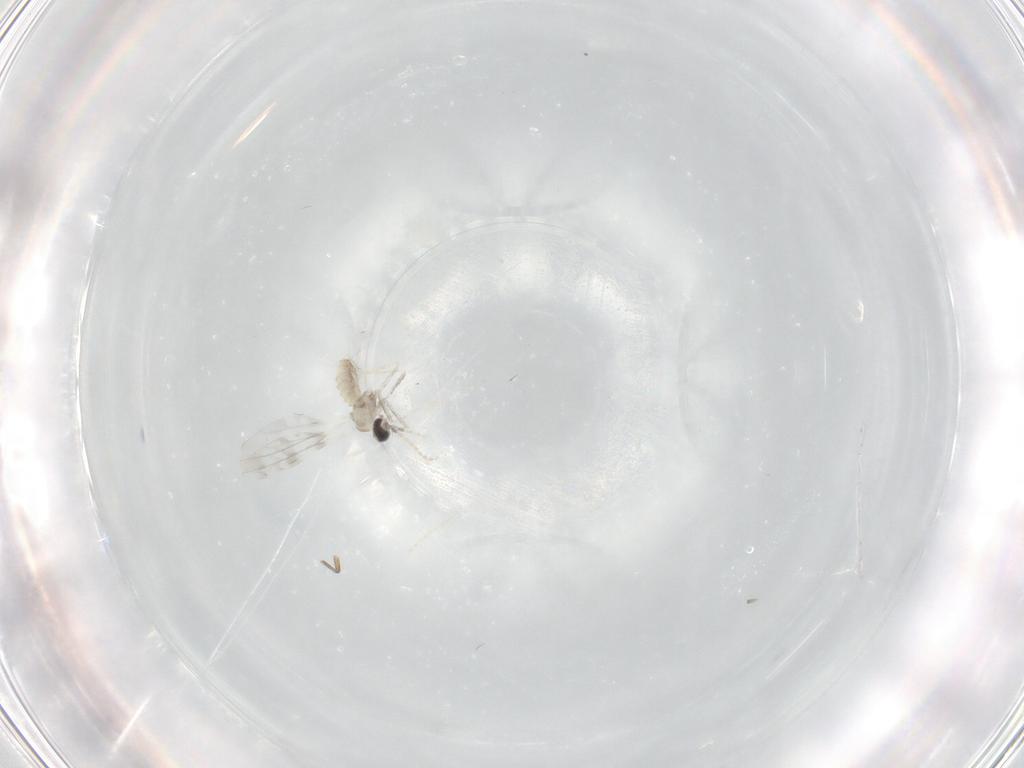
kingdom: Animalia
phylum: Arthropoda
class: Insecta
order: Diptera
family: Cecidomyiidae
